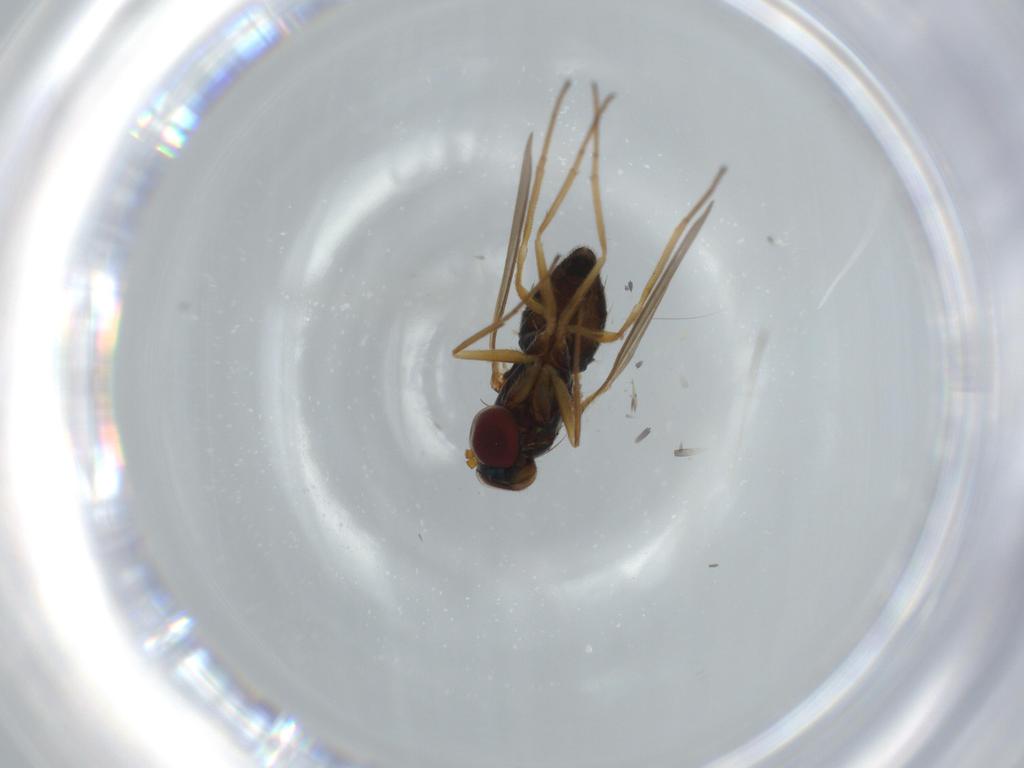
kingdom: Animalia
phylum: Arthropoda
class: Insecta
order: Diptera
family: Dolichopodidae
